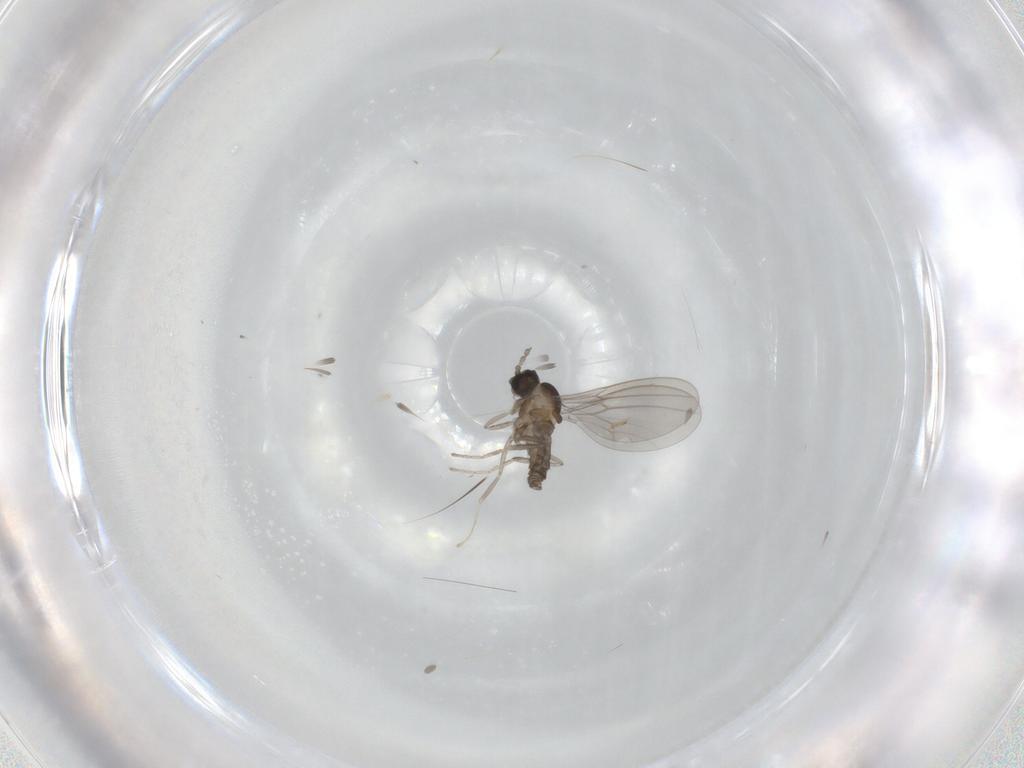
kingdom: Animalia
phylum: Arthropoda
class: Insecta
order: Diptera
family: Cecidomyiidae
